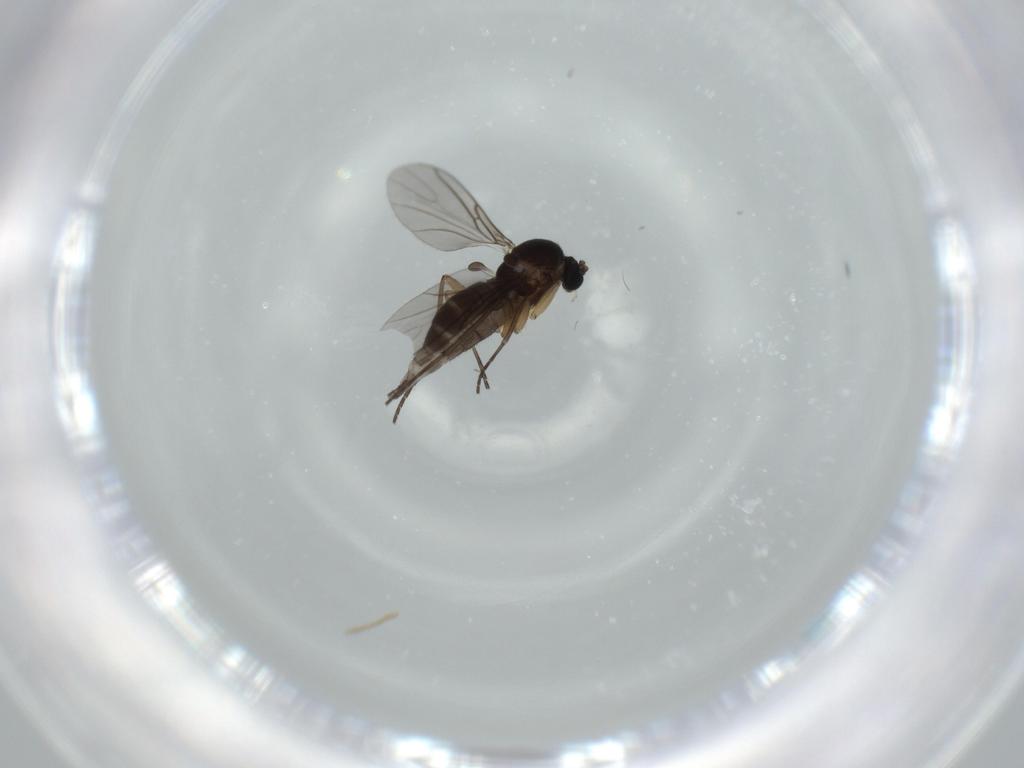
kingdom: Animalia
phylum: Arthropoda
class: Insecta
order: Diptera
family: Sciaridae
